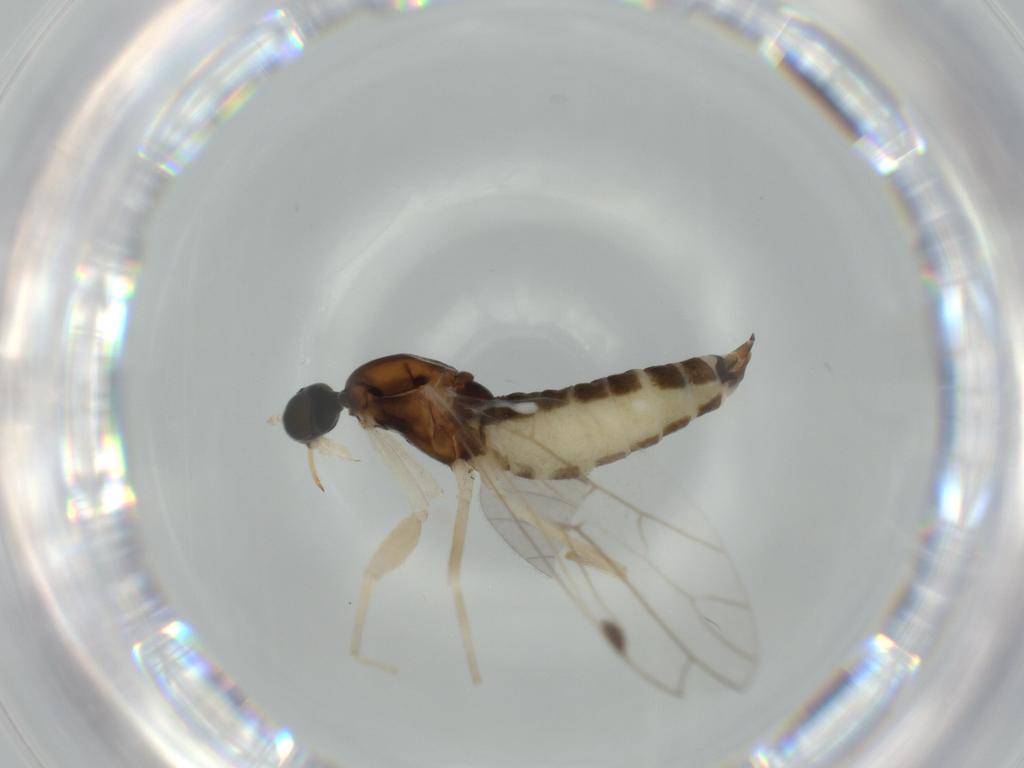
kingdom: Animalia
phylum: Arthropoda
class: Insecta
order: Diptera
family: Empididae
